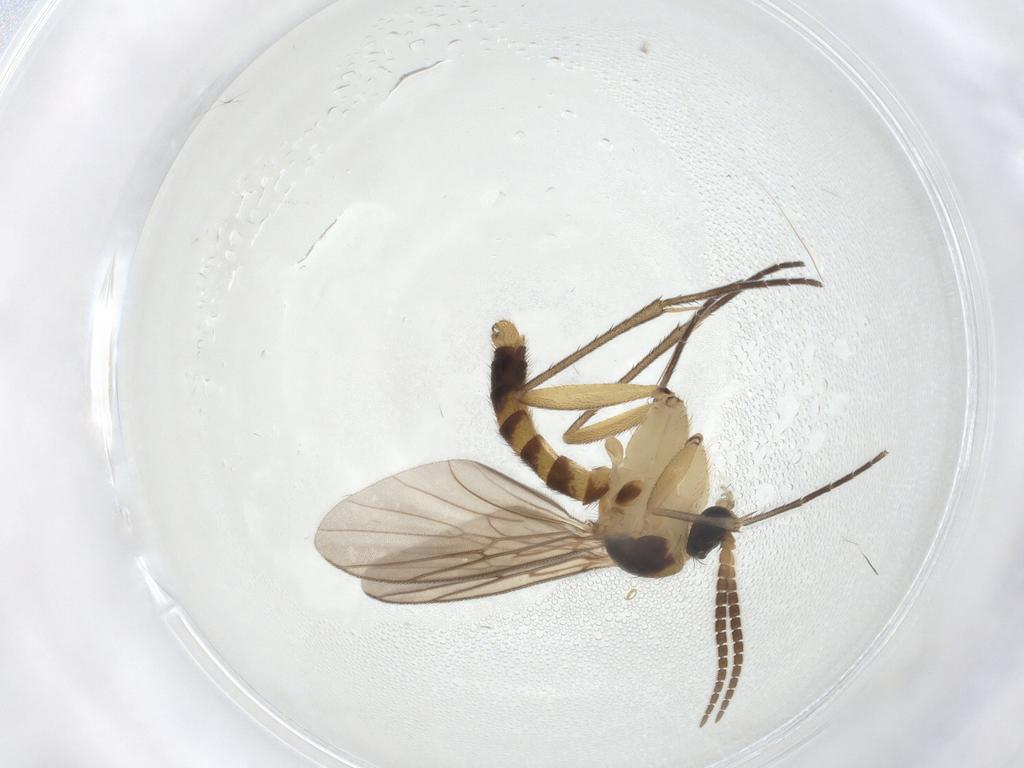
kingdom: Animalia
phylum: Arthropoda
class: Insecta
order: Diptera
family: Mycetophilidae
